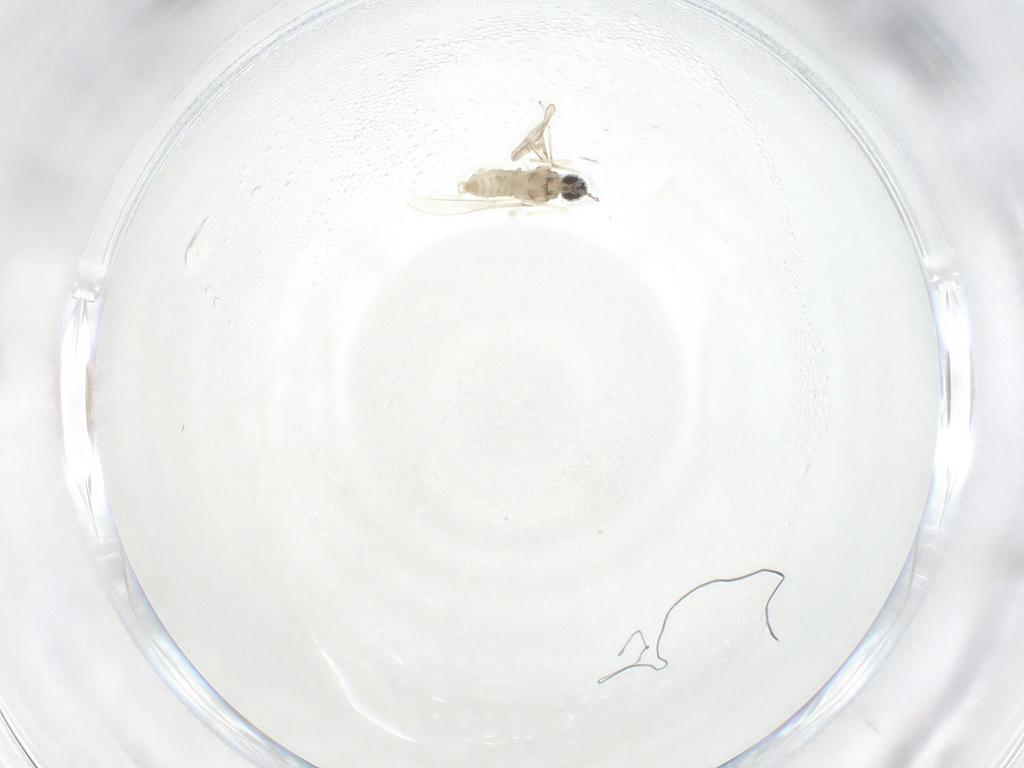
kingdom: Animalia
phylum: Arthropoda
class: Insecta
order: Diptera
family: Cecidomyiidae
